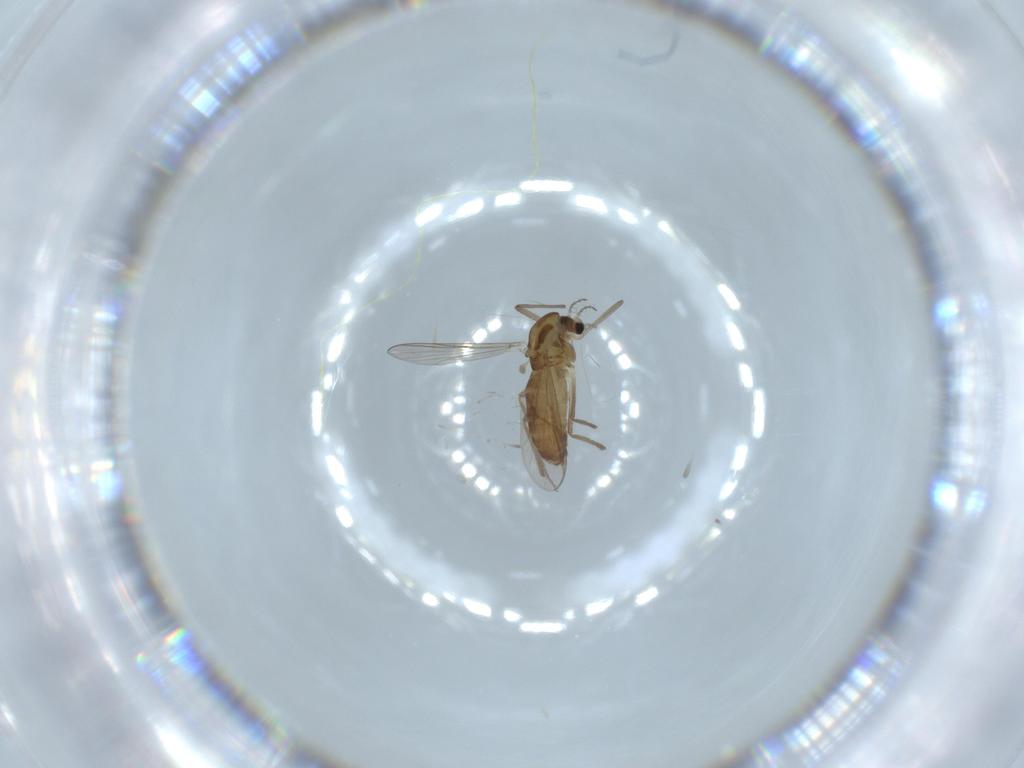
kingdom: Animalia
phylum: Arthropoda
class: Insecta
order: Diptera
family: Chironomidae
